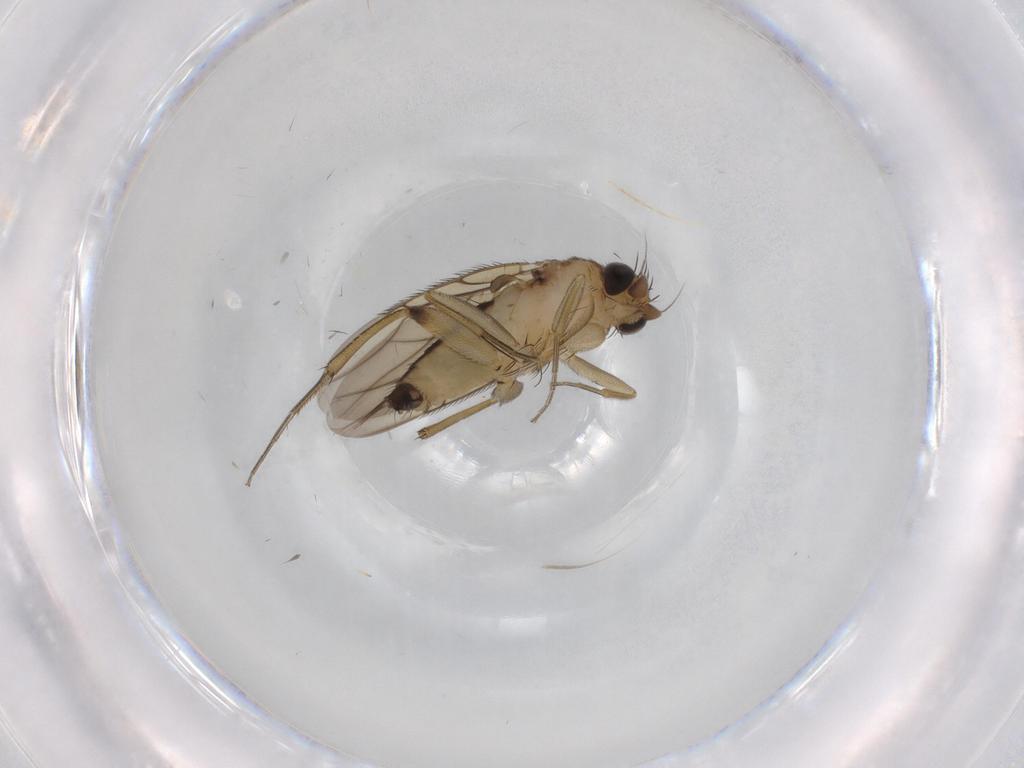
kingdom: Animalia
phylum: Arthropoda
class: Insecta
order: Diptera
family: Phoridae
